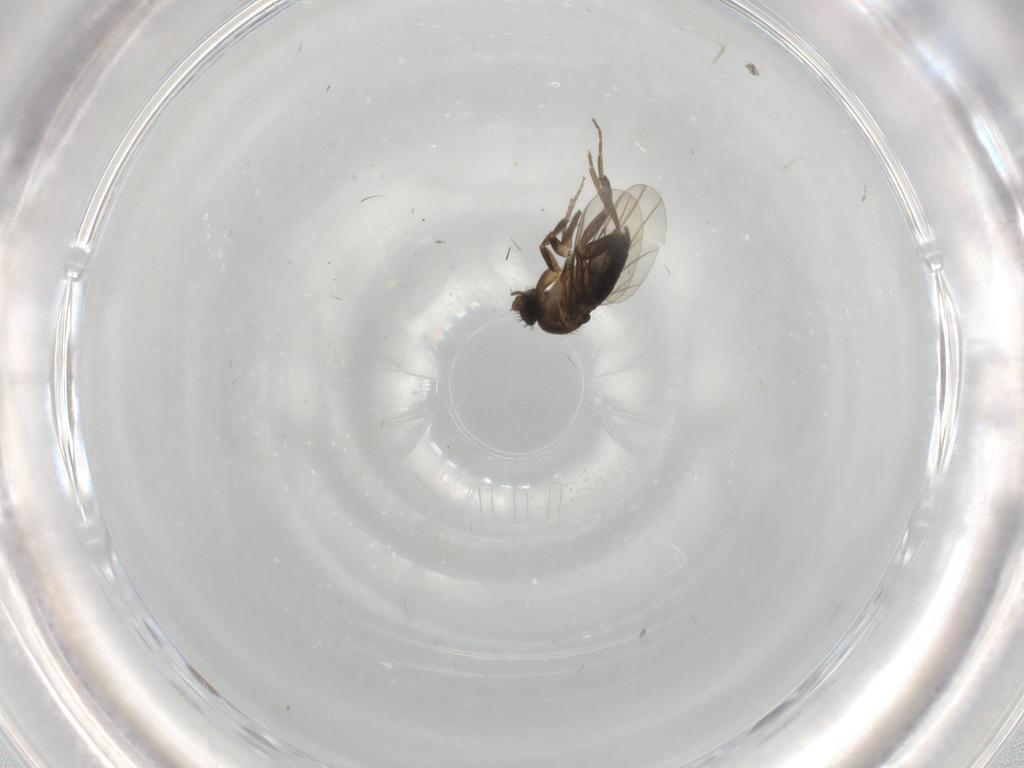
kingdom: Animalia
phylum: Arthropoda
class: Insecta
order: Diptera
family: Phoridae
